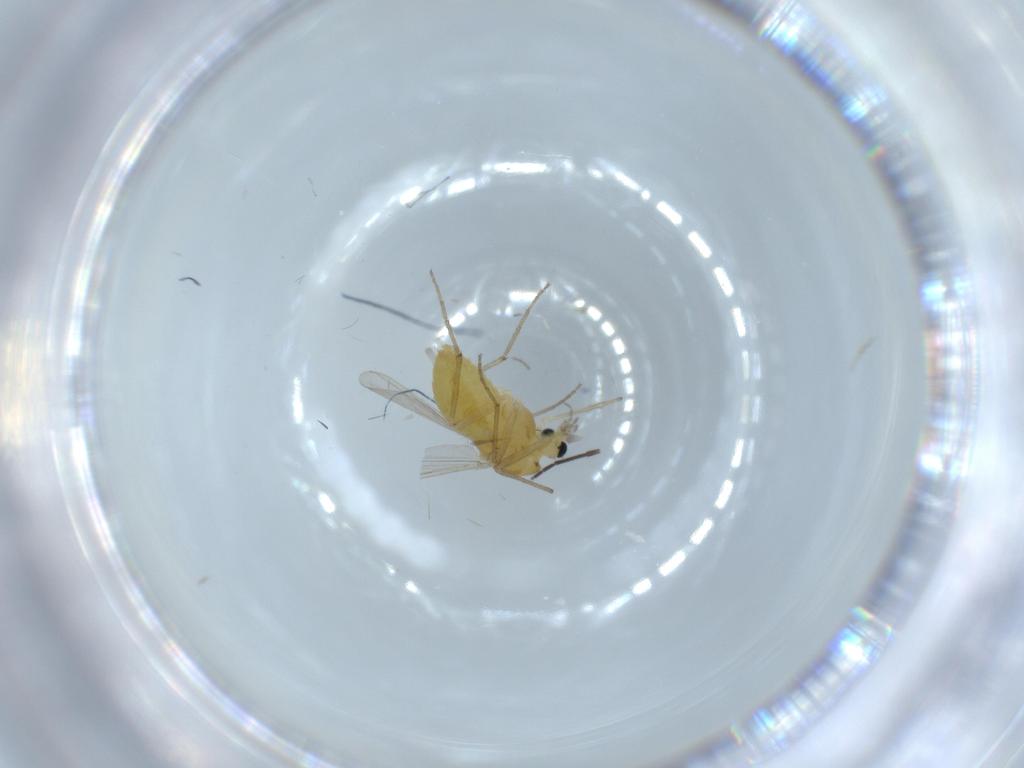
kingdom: Animalia
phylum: Arthropoda
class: Insecta
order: Diptera
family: Chironomidae
